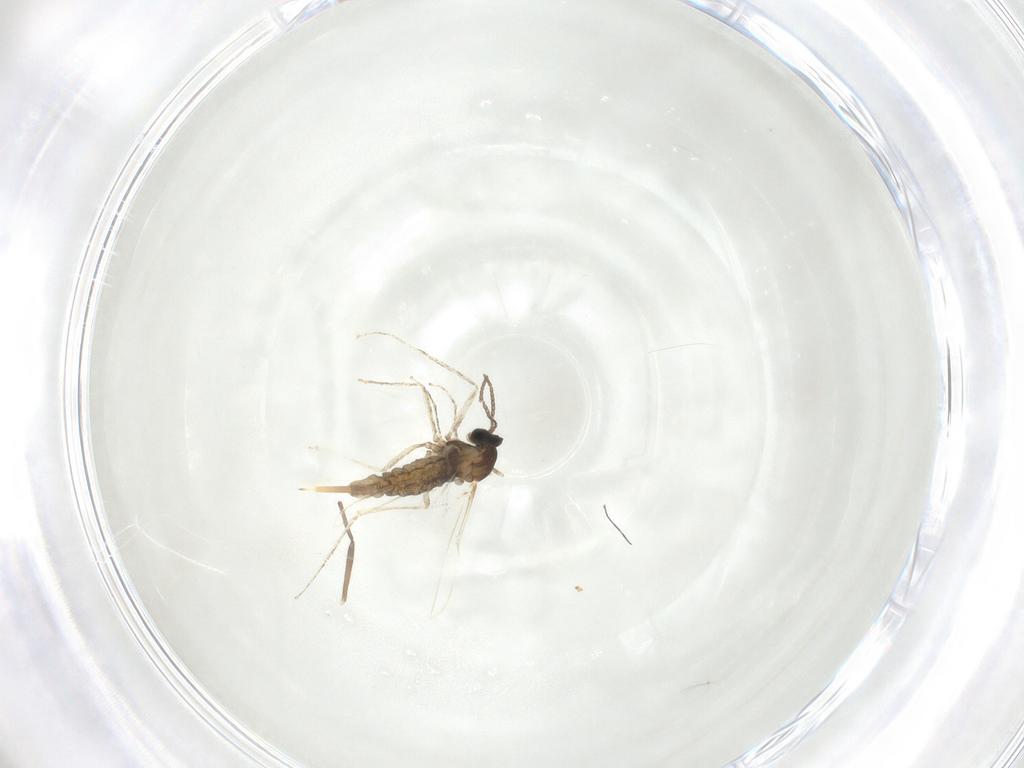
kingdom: Animalia
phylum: Arthropoda
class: Insecta
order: Diptera
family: Cecidomyiidae
